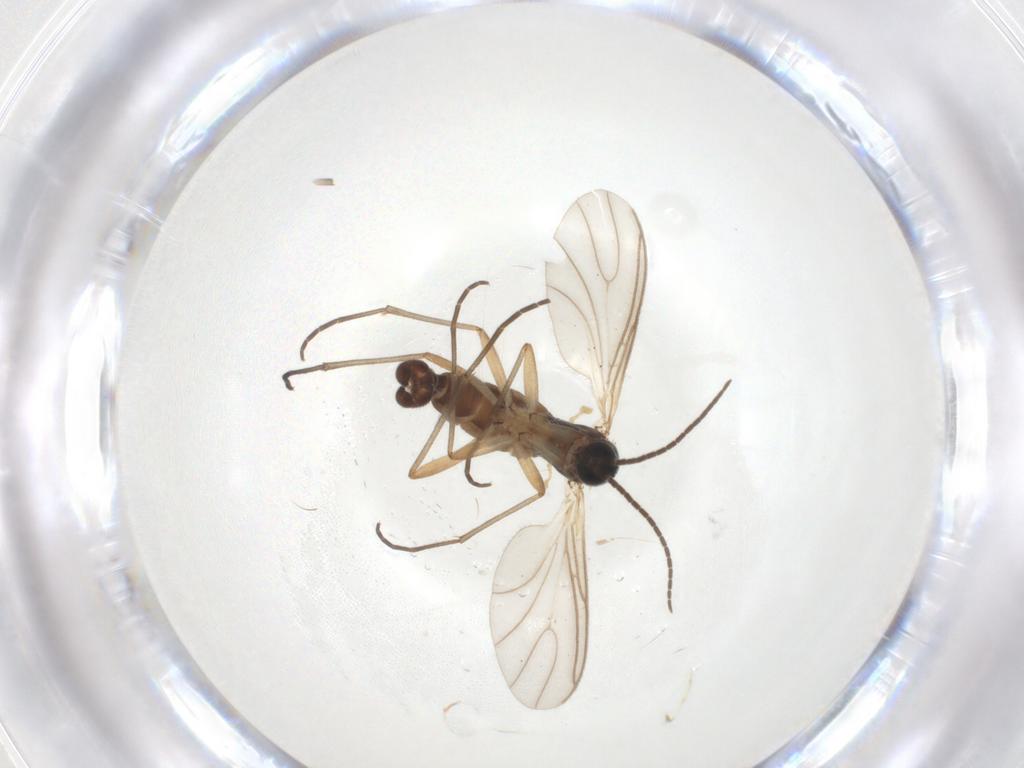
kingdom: Animalia
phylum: Arthropoda
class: Insecta
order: Diptera
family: Sciaridae
